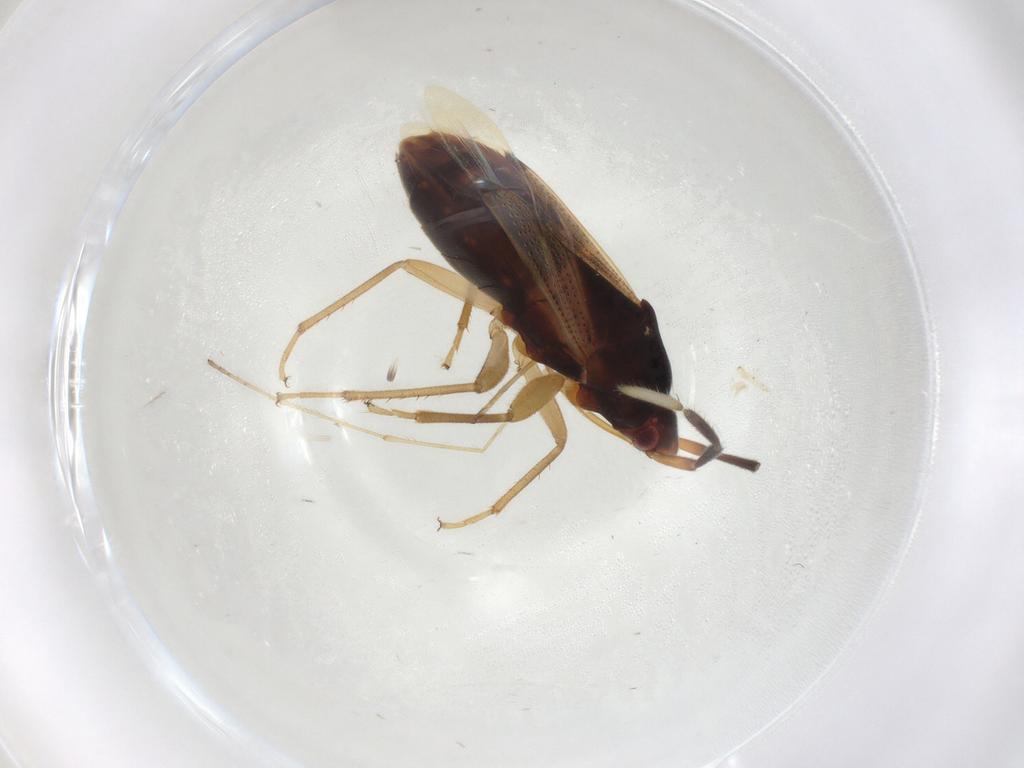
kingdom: Animalia
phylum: Arthropoda
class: Insecta
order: Hemiptera
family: Rhyparochromidae
